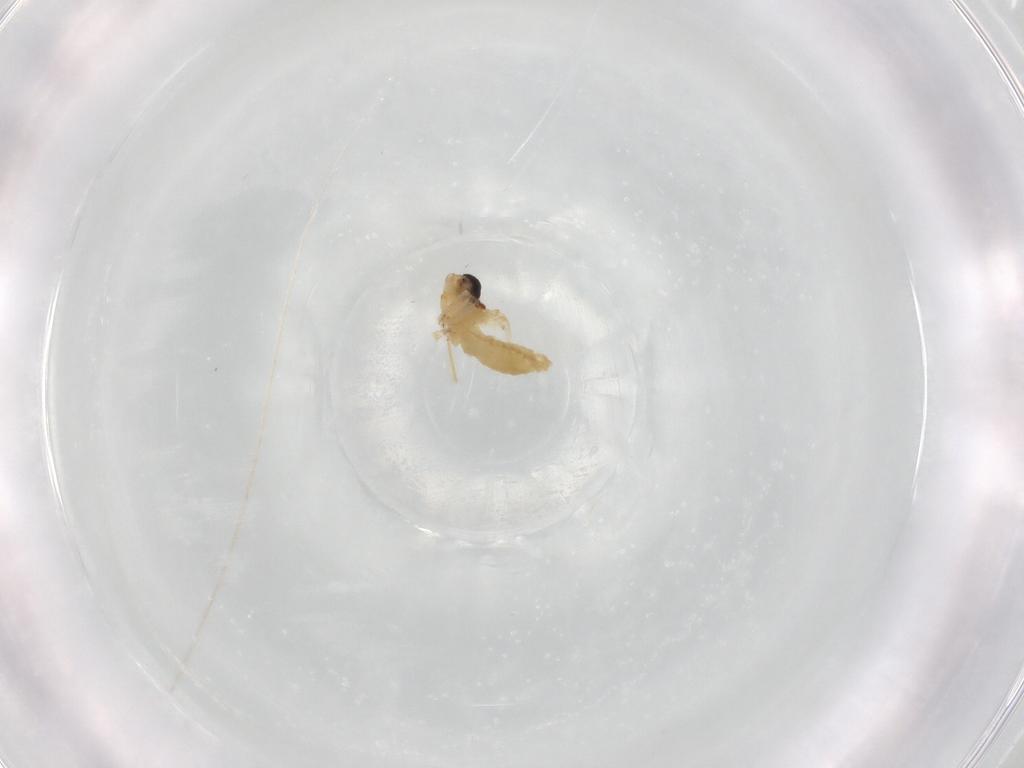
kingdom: Animalia
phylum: Arthropoda
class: Insecta
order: Diptera
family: Chironomidae
